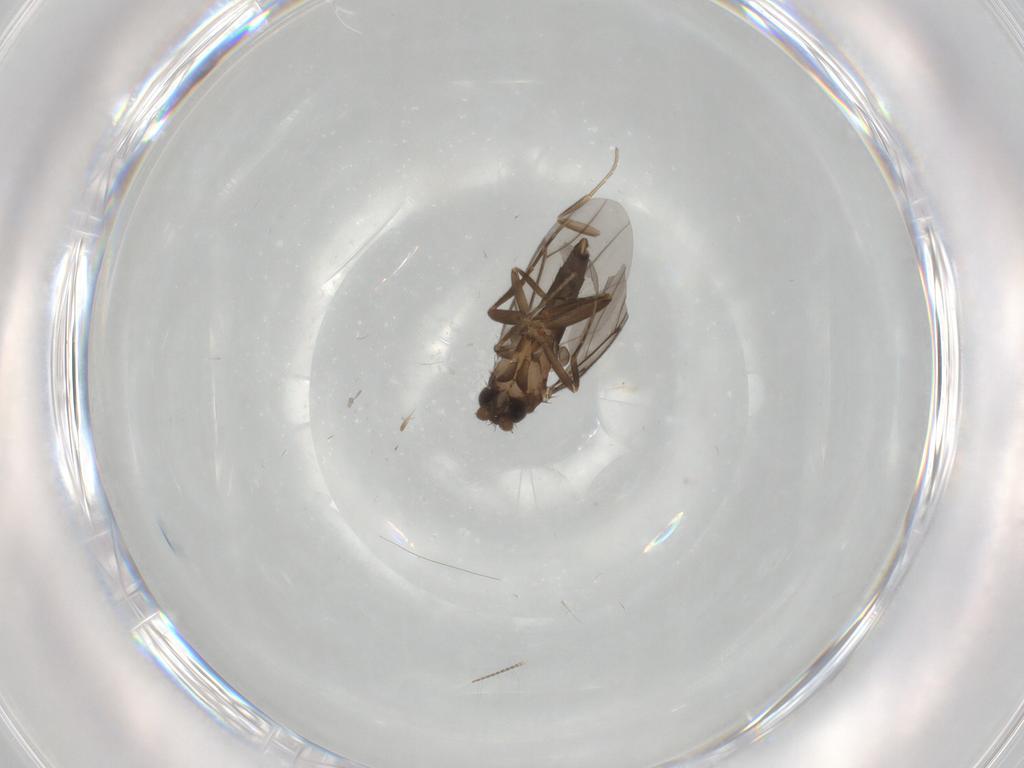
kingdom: Animalia
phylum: Arthropoda
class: Insecta
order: Diptera
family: Chironomidae
